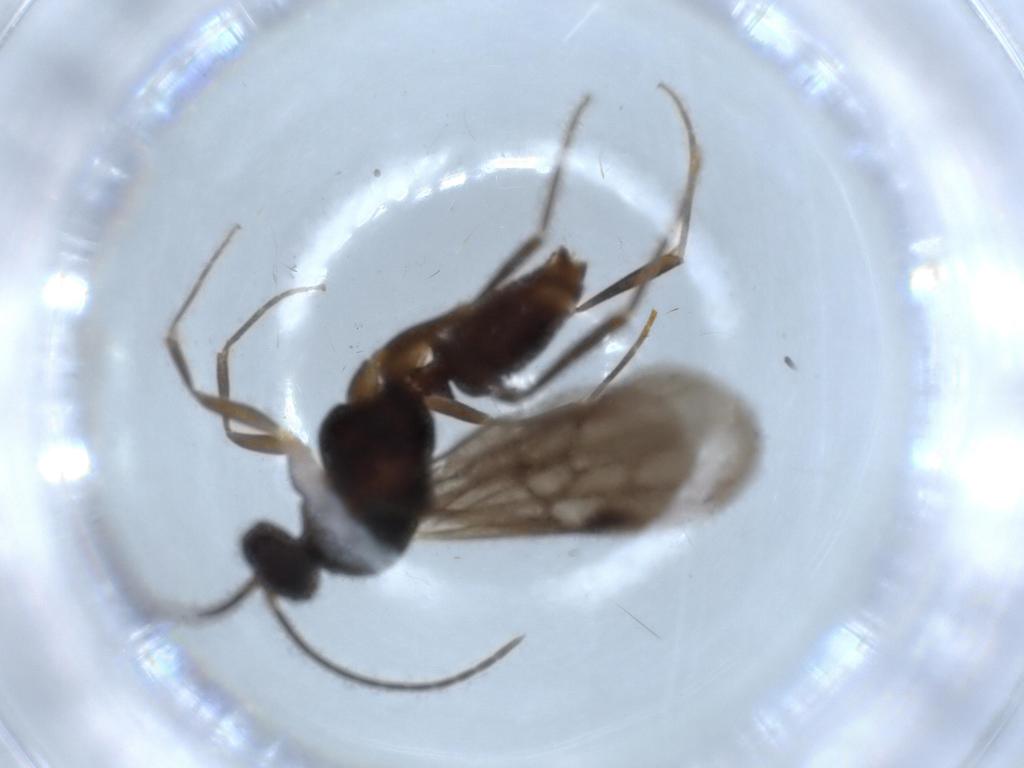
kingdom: Animalia
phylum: Arthropoda
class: Insecta
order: Hymenoptera
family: Formicidae
